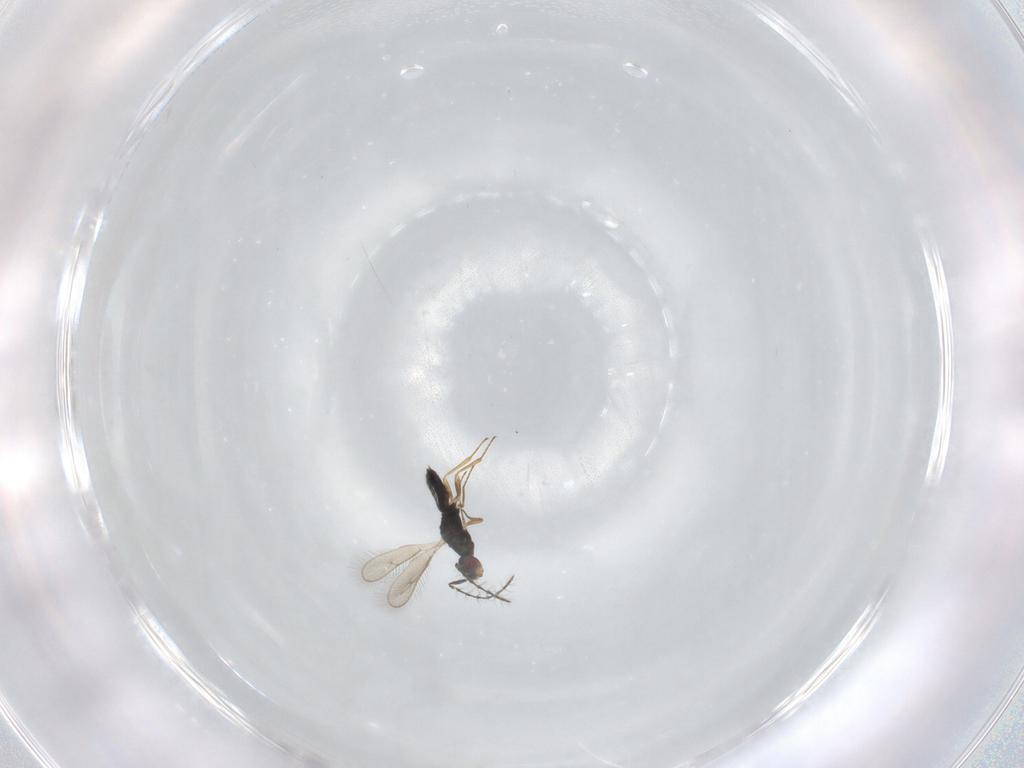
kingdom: Animalia
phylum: Arthropoda
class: Insecta
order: Hymenoptera
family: Pteromalidae
